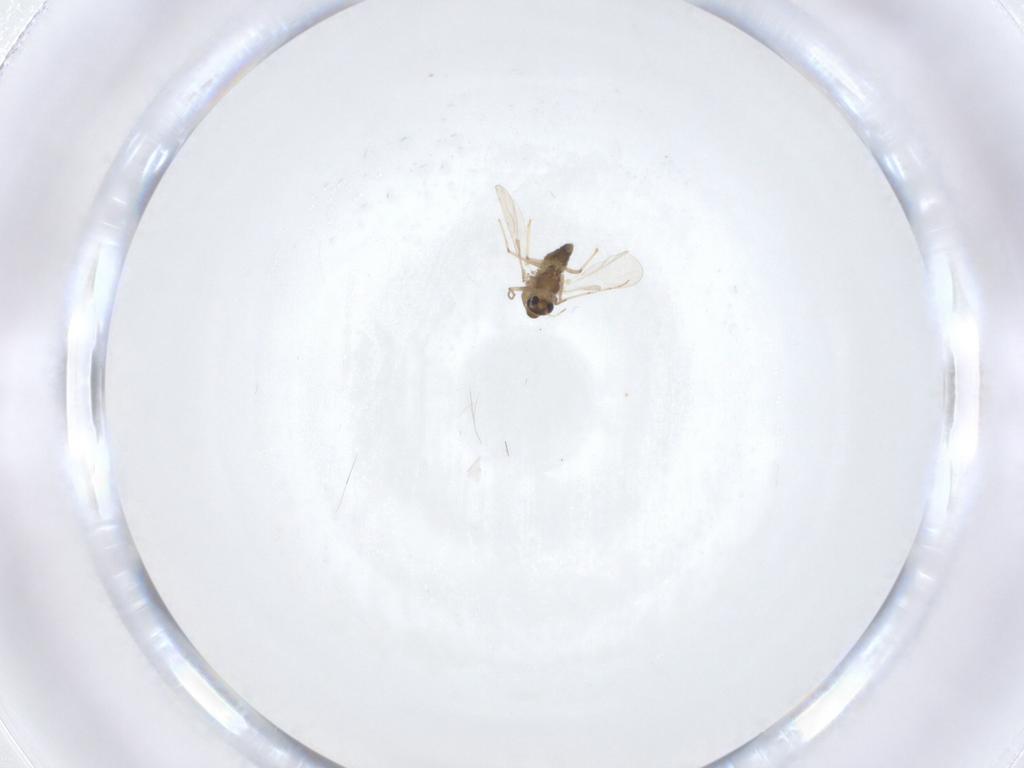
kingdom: Animalia
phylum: Arthropoda
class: Insecta
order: Diptera
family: Chironomidae
